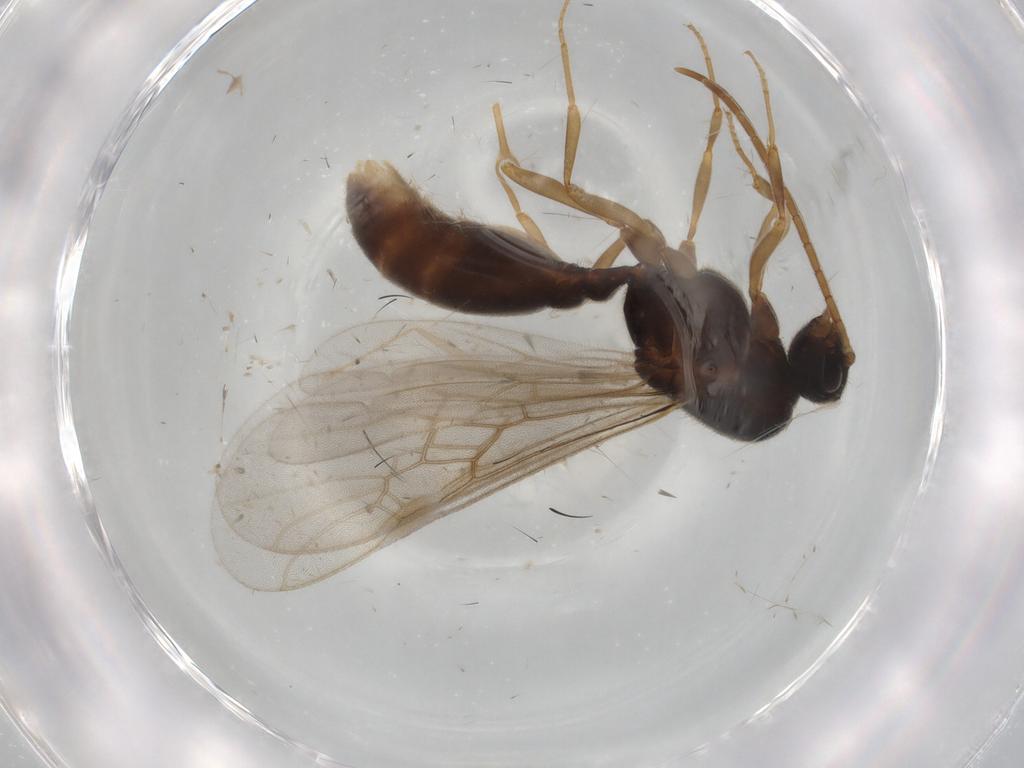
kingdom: Animalia
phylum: Arthropoda
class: Insecta
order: Hymenoptera
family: Formicidae
